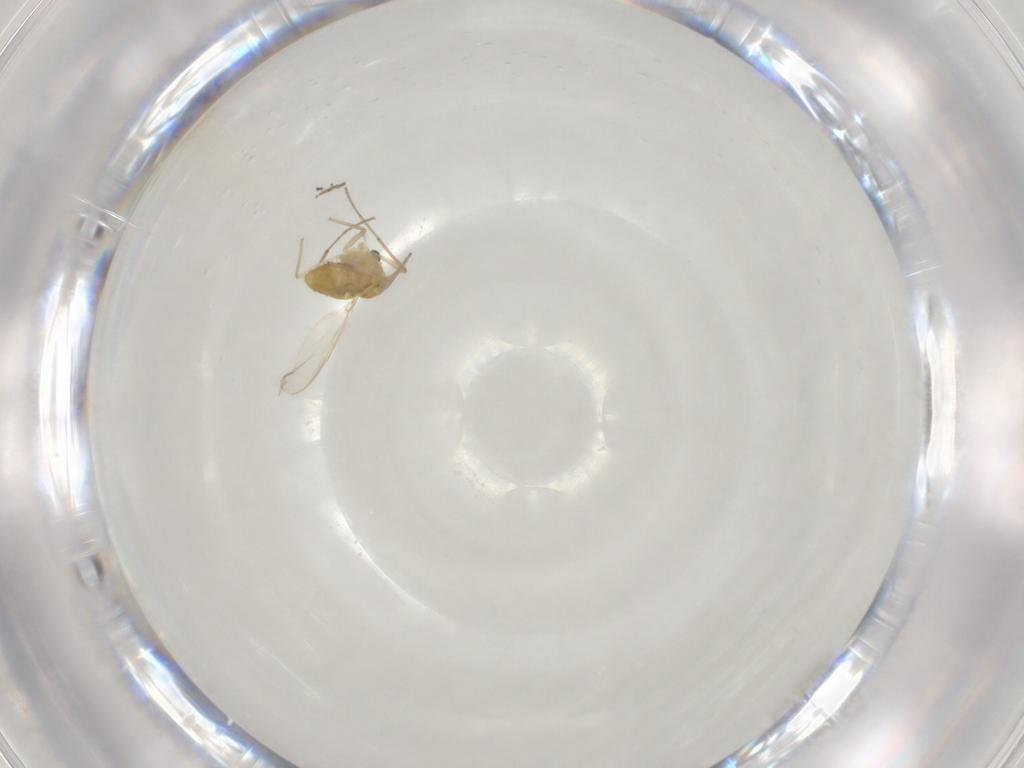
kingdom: Animalia
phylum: Arthropoda
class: Insecta
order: Diptera
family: Chironomidae
